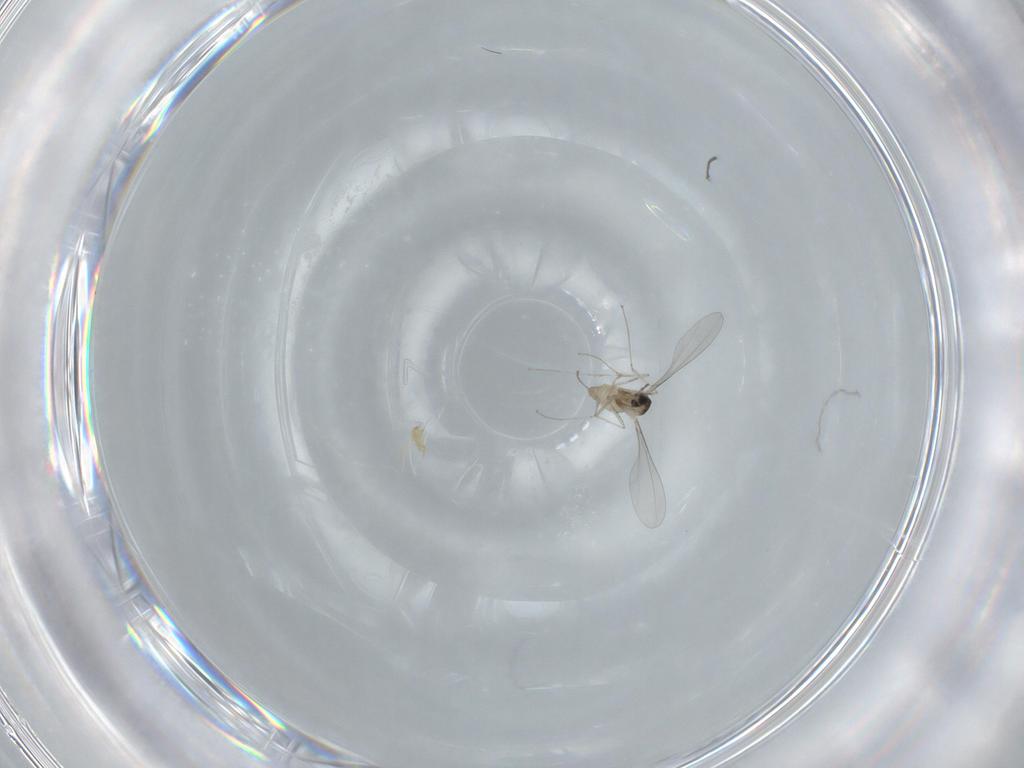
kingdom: Animalia
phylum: Arthropoda
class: Insecta
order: Diptera
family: Cecidomyiidae
